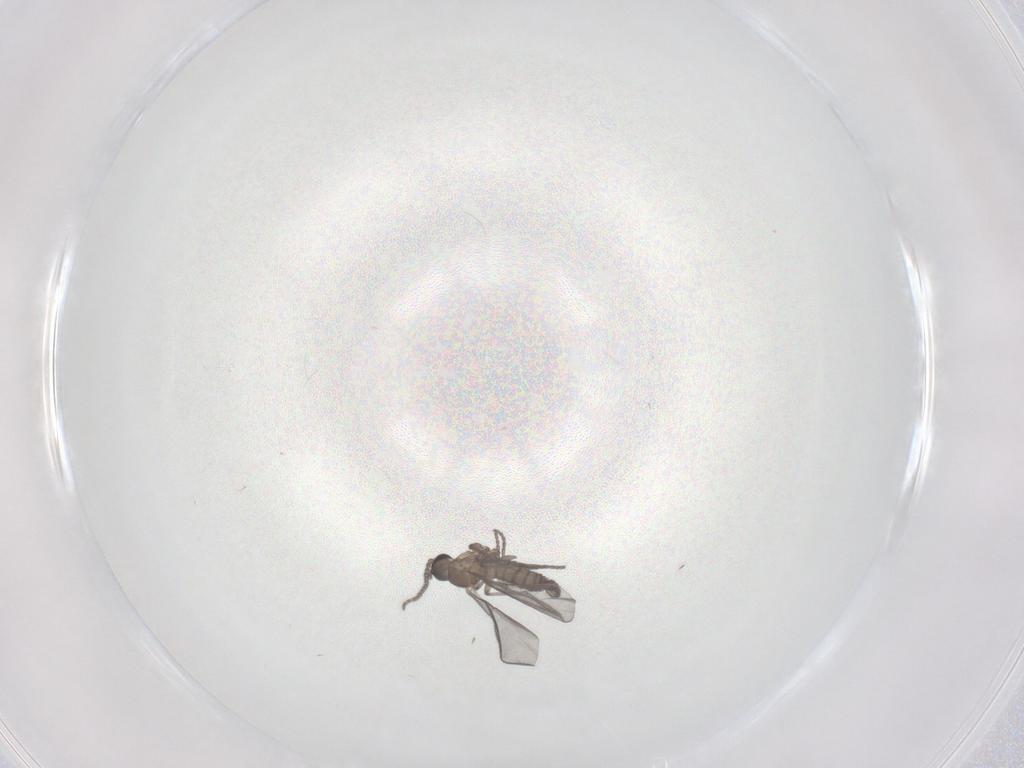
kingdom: Animalia
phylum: Arthropoda
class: Insecta
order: Diptera
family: Sciaridae
